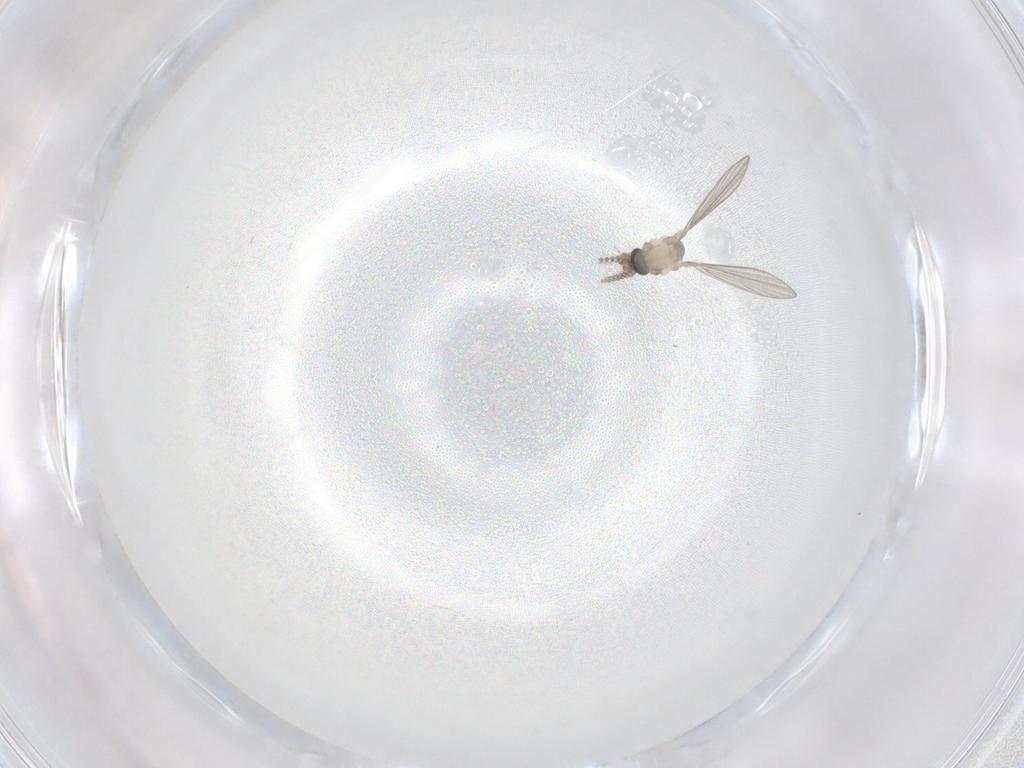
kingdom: Animalia
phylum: Arthropoda
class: Insecta
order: Diptera
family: Psychodidae
